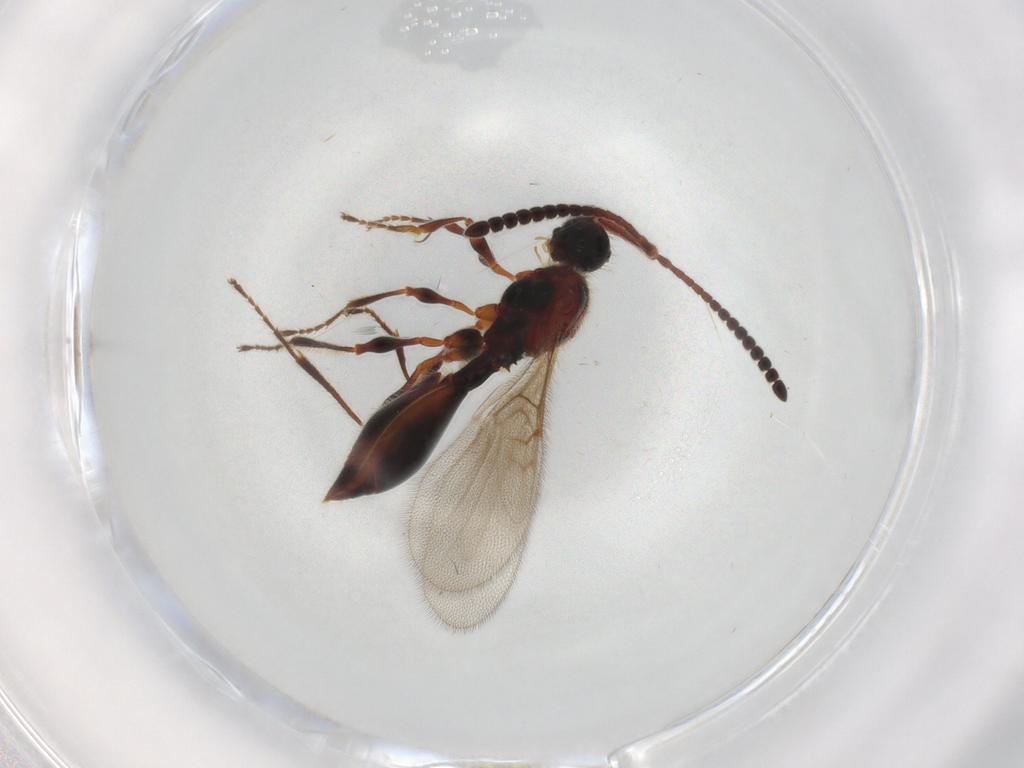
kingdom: Animalia
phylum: Arthropoda
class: Insecta
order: Hymenoptera
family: Diapriidae
